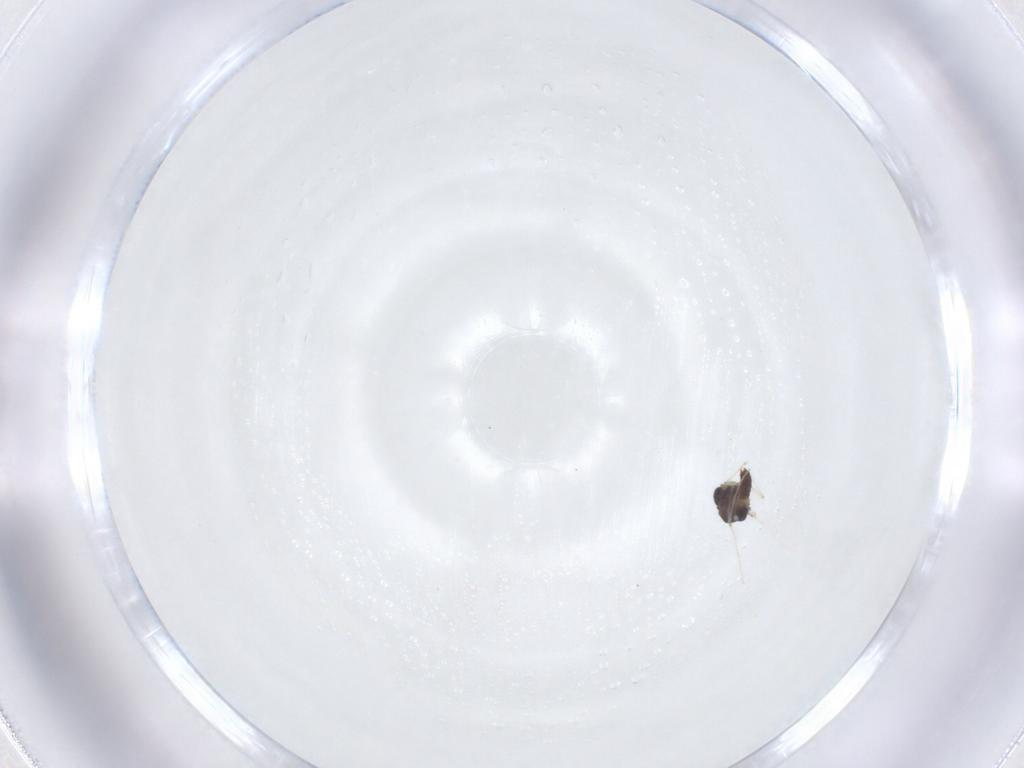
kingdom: Animalia
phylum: Arthropoda
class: Insecta
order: Diptera
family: Chironomidae
